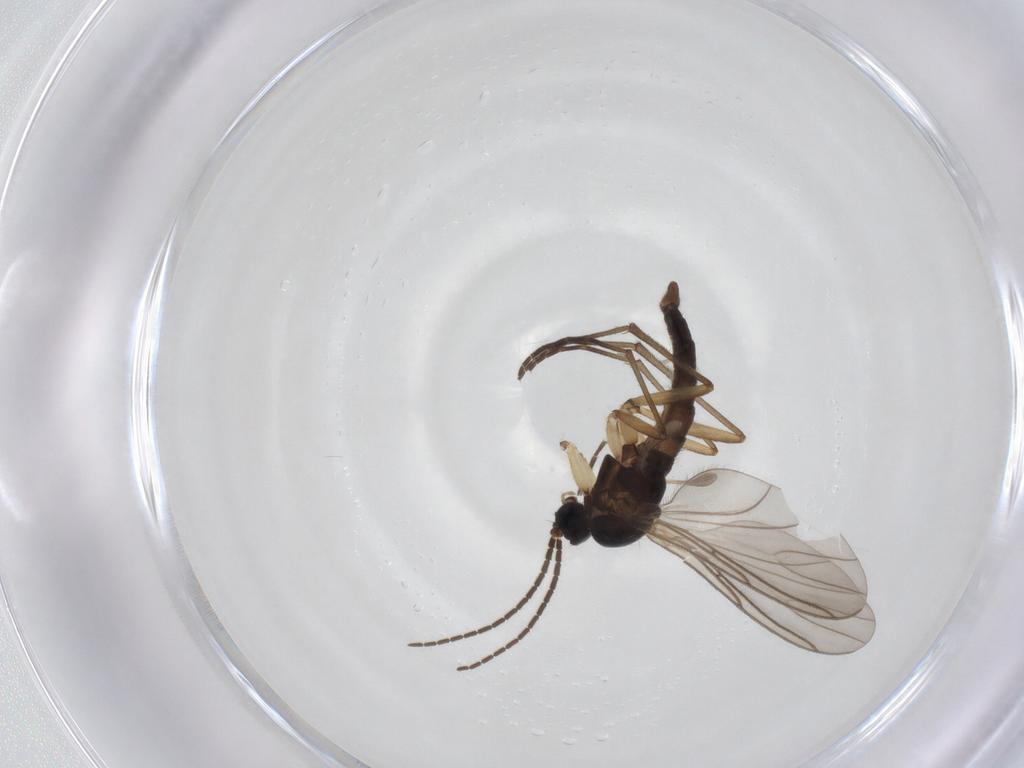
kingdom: Animalia
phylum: Arthropoda
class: Insecta
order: Diptera
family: Sciaridae
